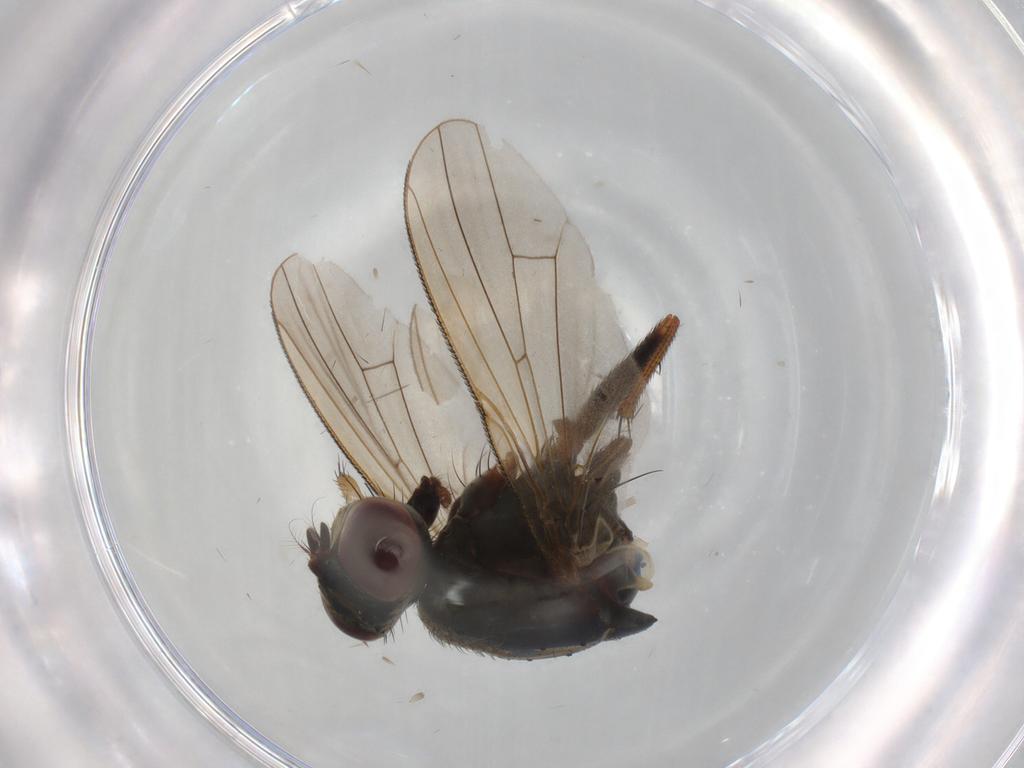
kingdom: Animalia
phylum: Arthropoda
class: Insecta
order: Diptera
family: Muscidae
